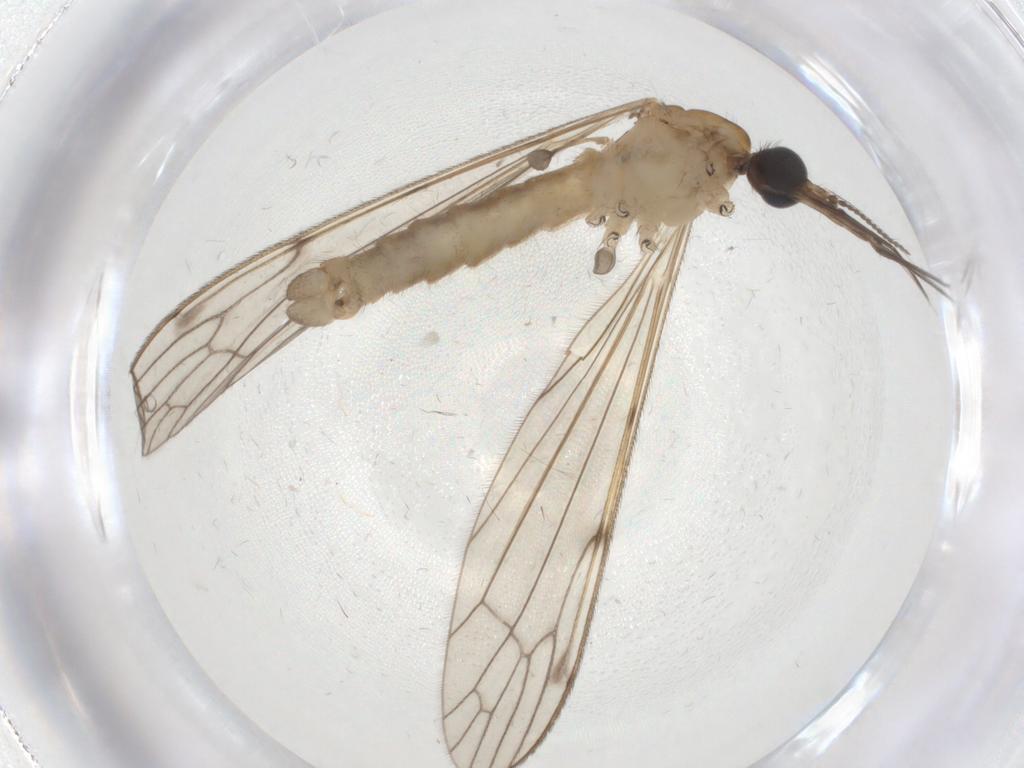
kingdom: Animalia
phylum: Arthropoda
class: Insecta
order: Diptera
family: Limoniidae
